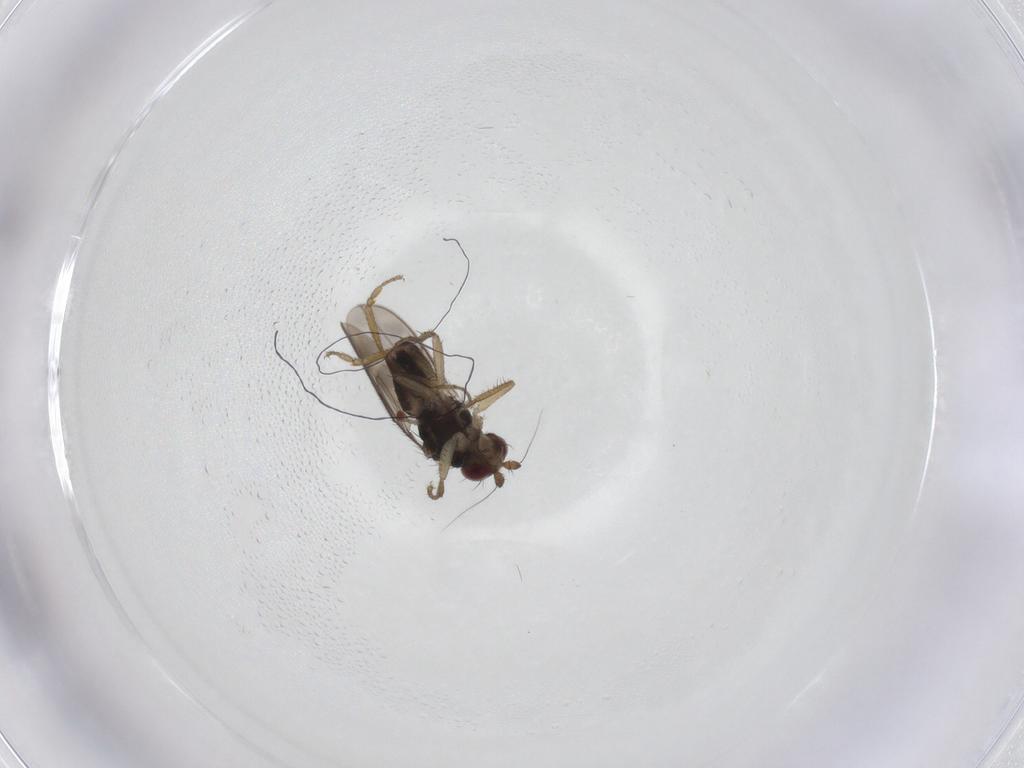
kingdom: Animalia
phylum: Arthropoda
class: Insecta
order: Diptera
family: Sphaeroceridae
